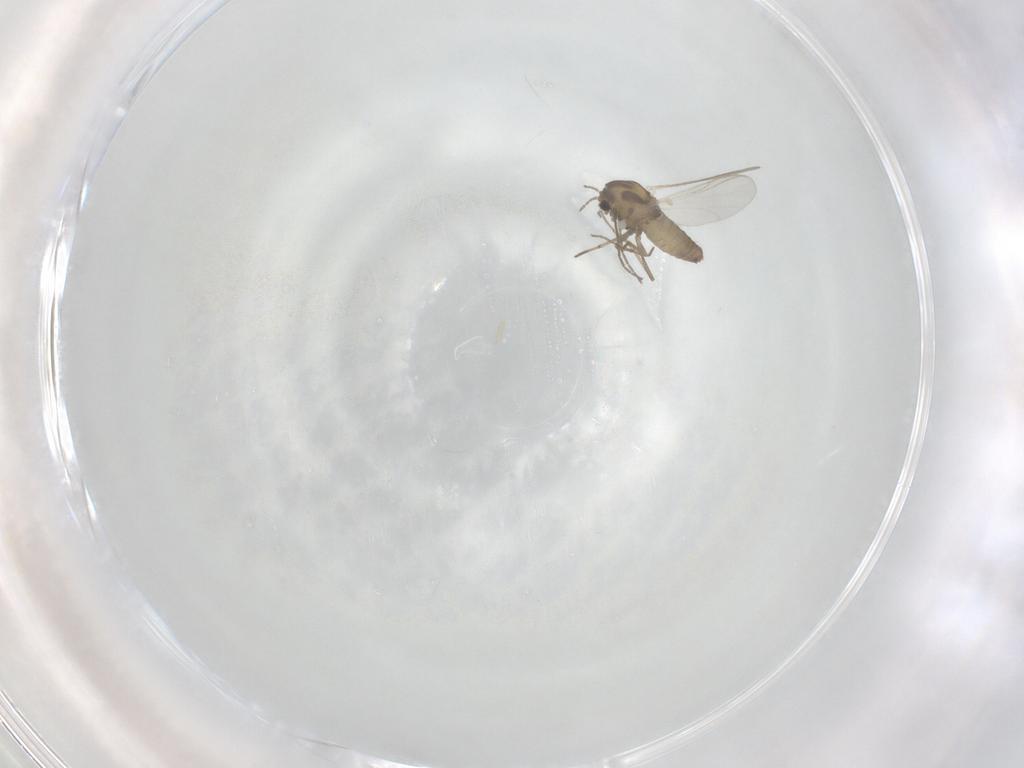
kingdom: Animalia
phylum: Arthropoda
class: Insecta
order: Diptera
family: Chironomidae
